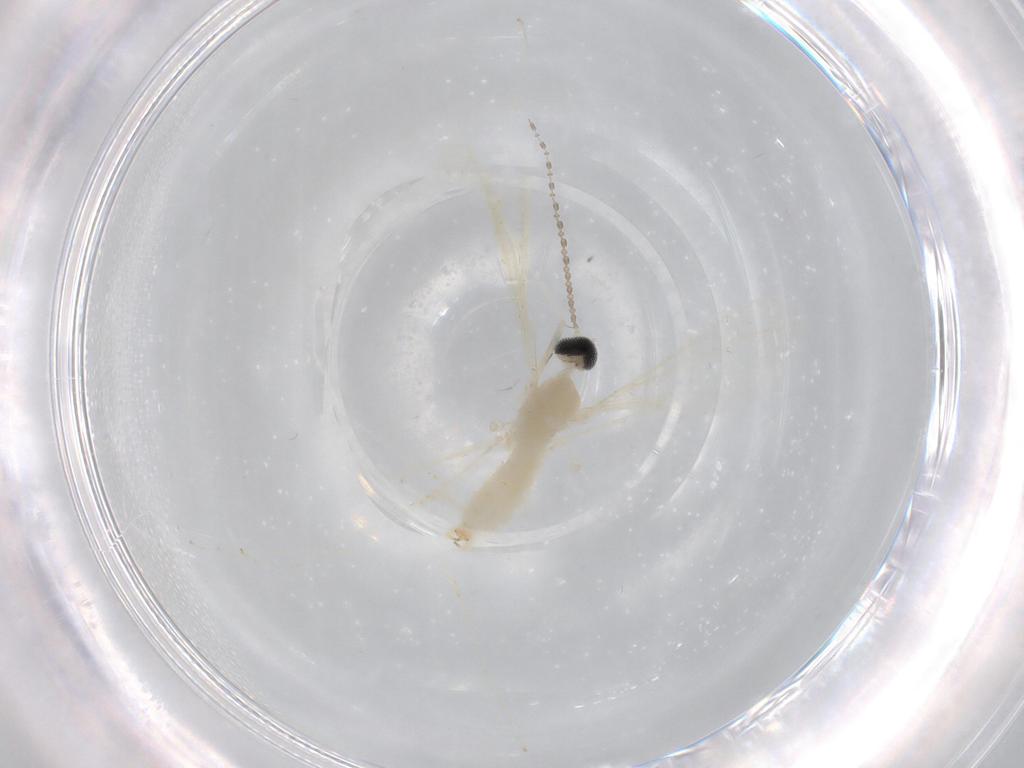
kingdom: Animalia
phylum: Arthropoda
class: Insecta
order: Diptera
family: Cecidomyiidae
